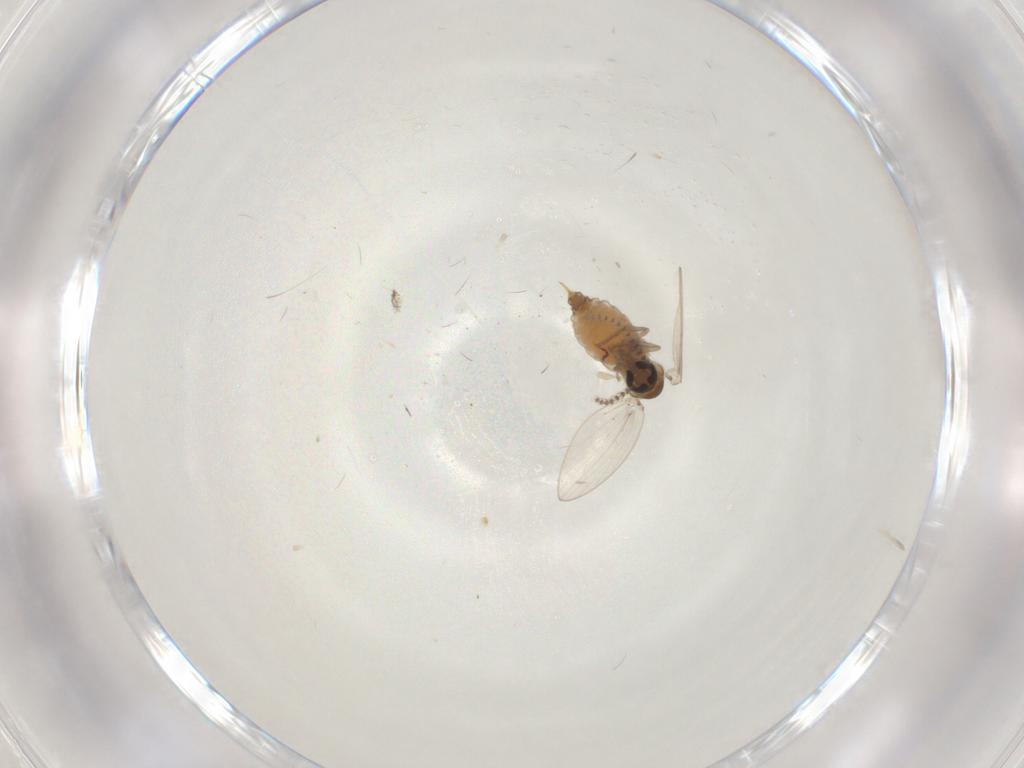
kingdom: Animalia
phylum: Arthropoda
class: Insecta
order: Diptera
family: Psychodidae
